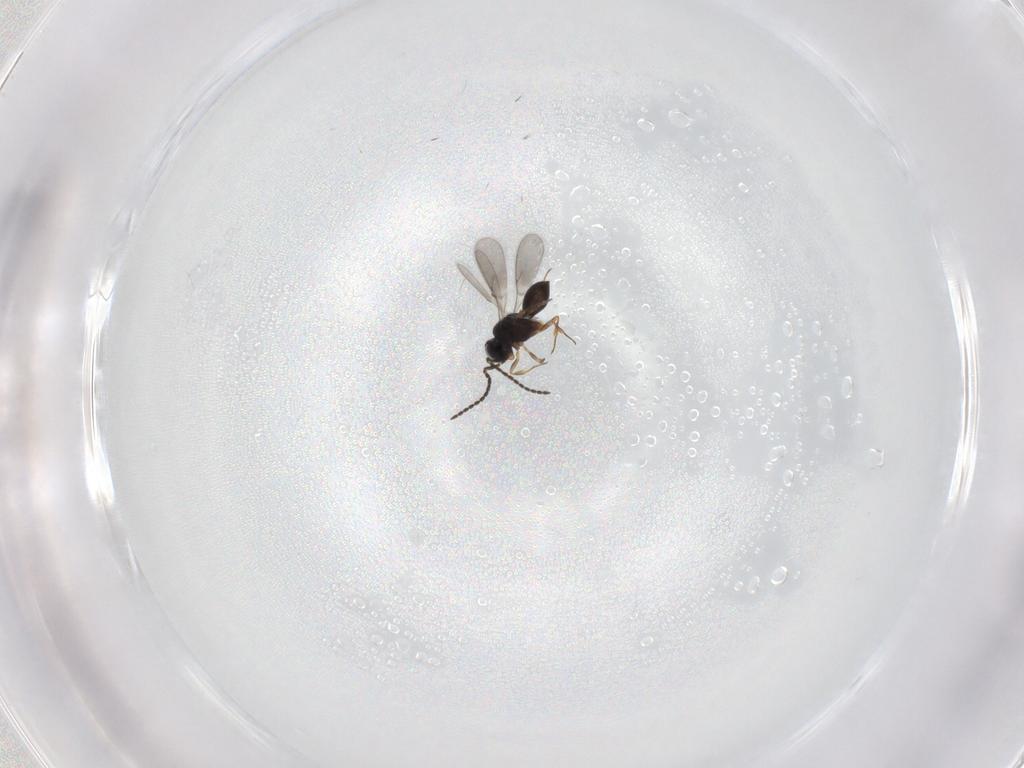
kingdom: Animalia
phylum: Arthropoda
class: Insecta
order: Hymenoptera
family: Scelionidae
